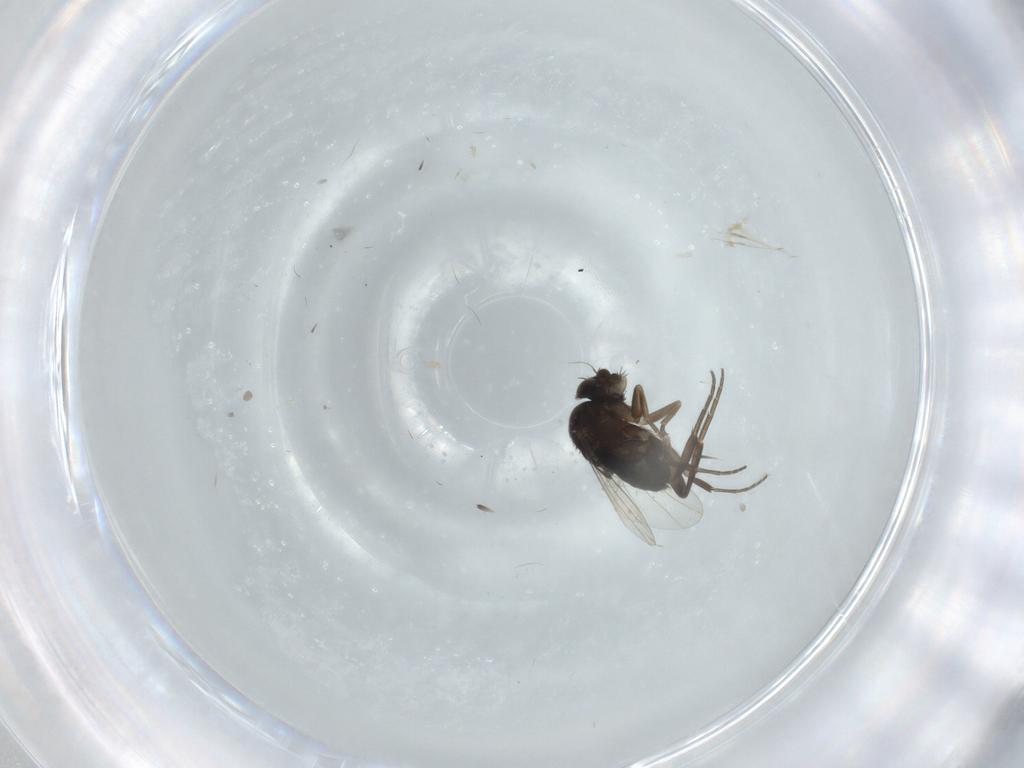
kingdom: Animalia
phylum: Arthropoda
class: Insecta
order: Diptera
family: Phoridae
